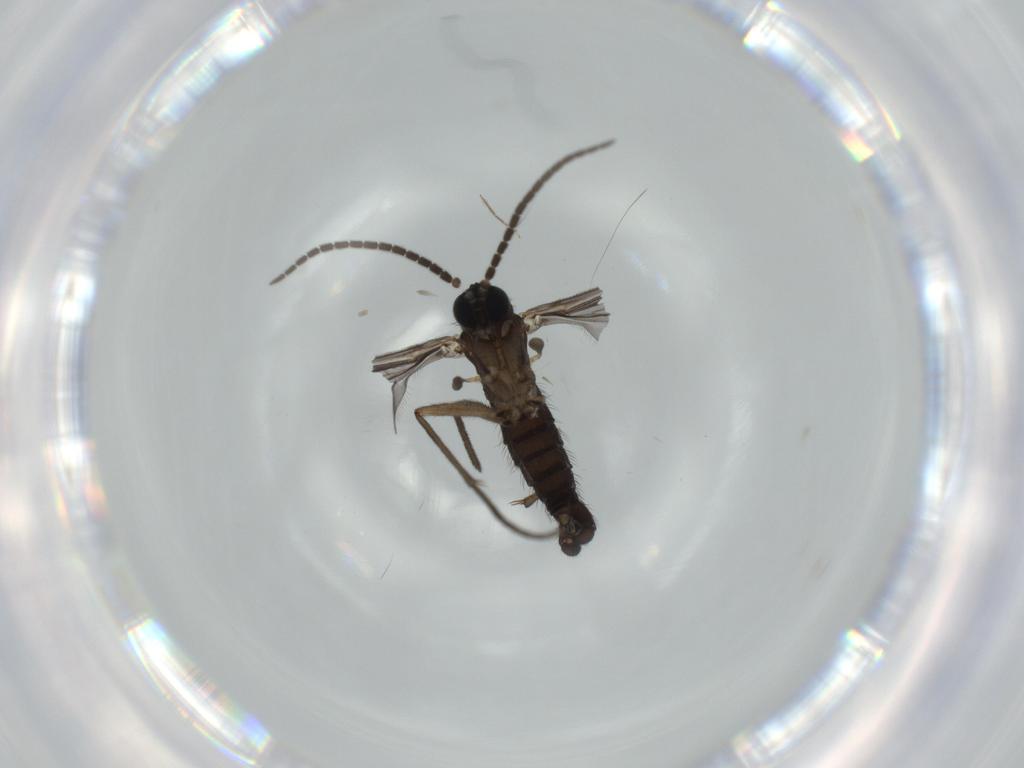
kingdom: Animalia
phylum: Arthropoda
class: Insecta
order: Diptera
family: Sciaridae
